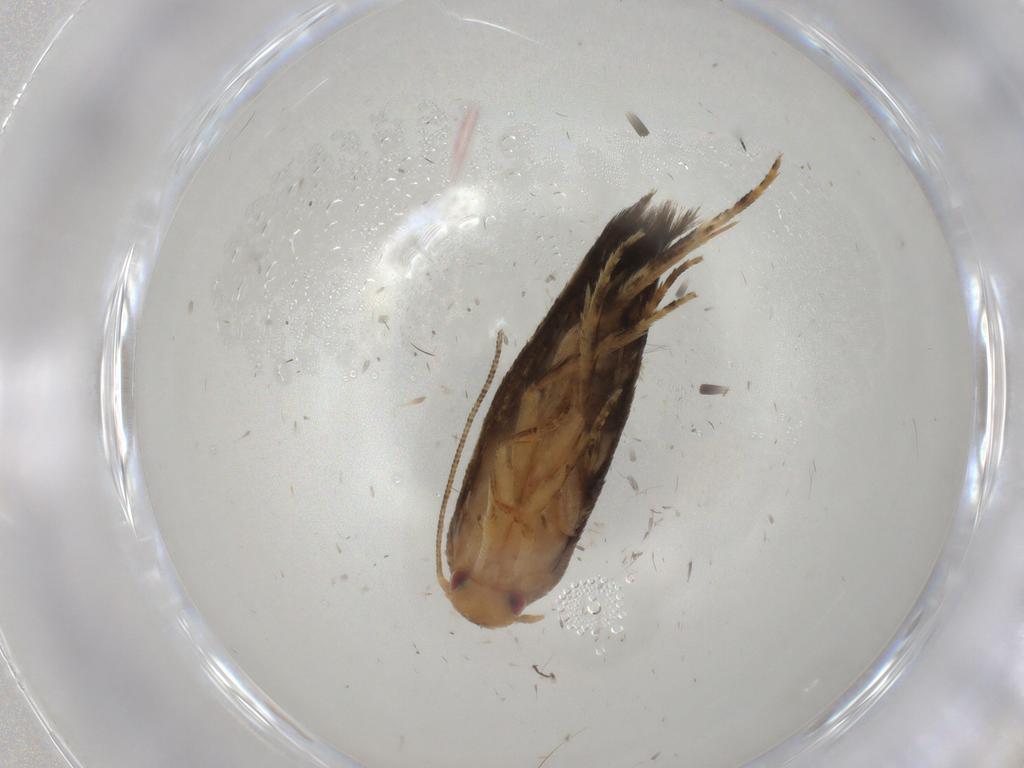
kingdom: Animalia
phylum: Arthropoda
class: Insecta
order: Lepidoptera
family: Momphidae
